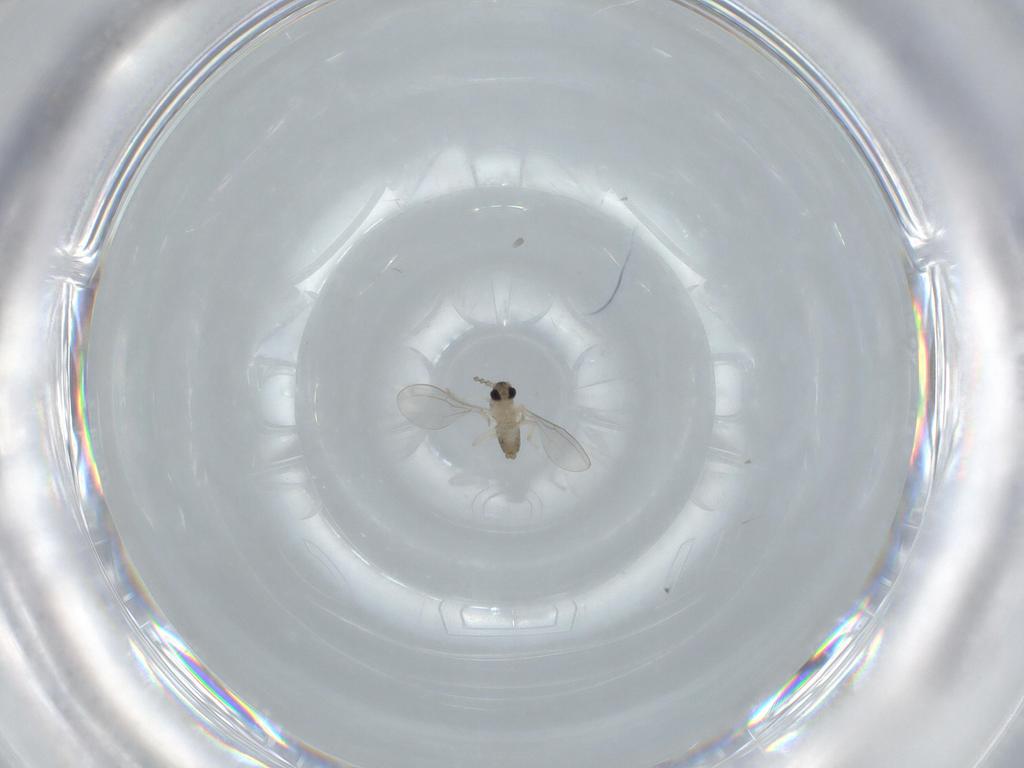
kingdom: Animalia
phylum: Arthropoda
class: Insecta
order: Diptera
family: Cecidomyiidae
